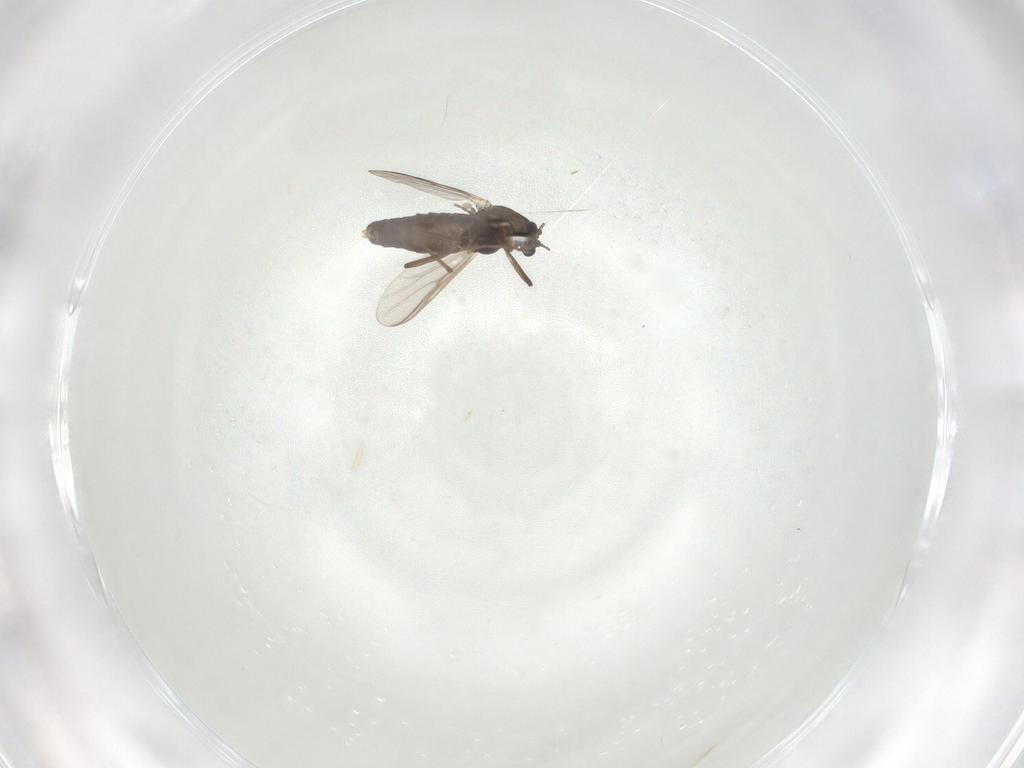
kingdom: Animalia
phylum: Arthropoda
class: Insecta
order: Diptera
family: Chironomidae
